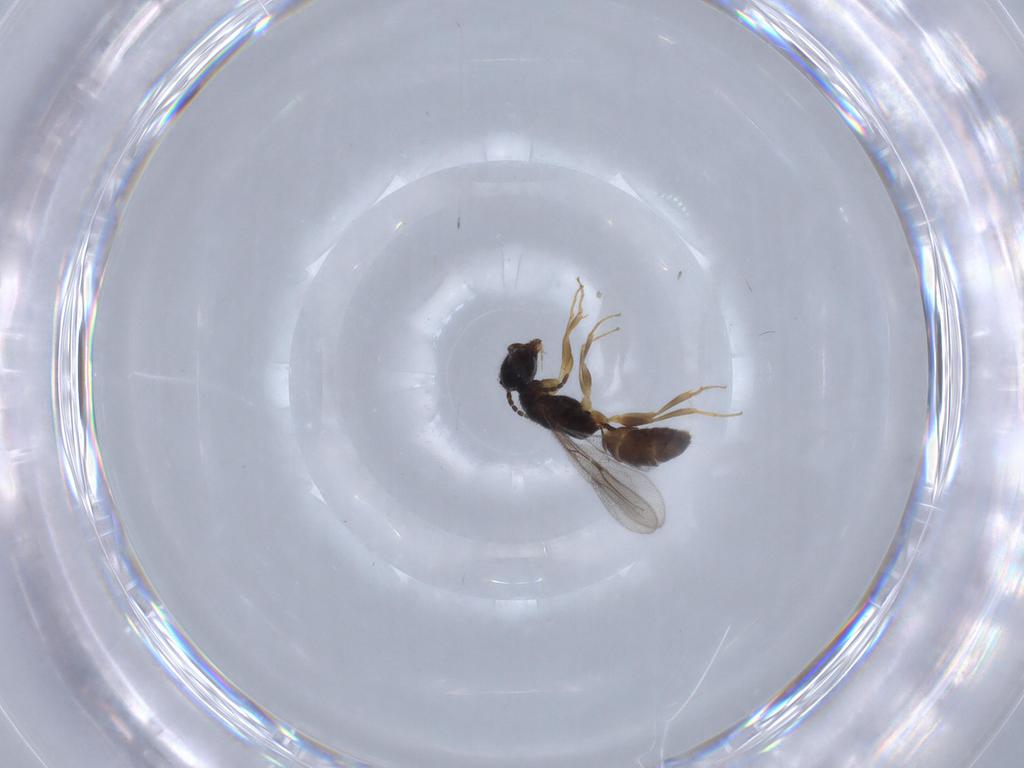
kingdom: Animalia
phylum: Arthropoda
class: Insecta
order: Hymenoptera
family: Bethylidae
